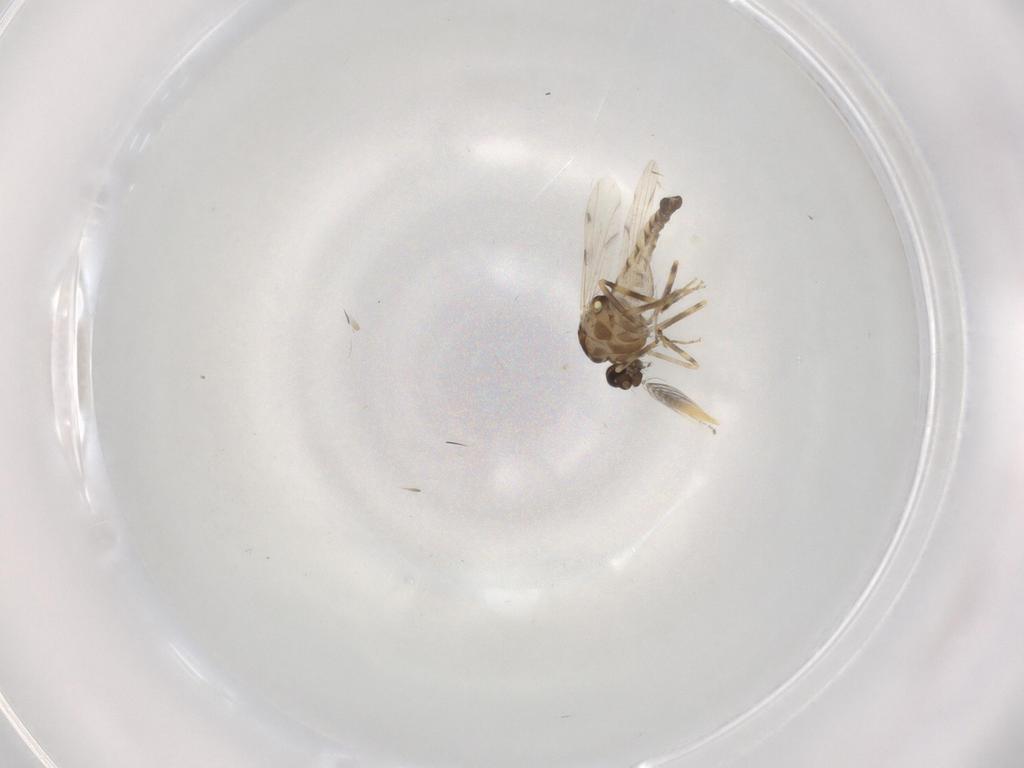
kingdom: Animalia
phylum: Arthropoda
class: Insecta
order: Diptera
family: Ceratopogonidae
